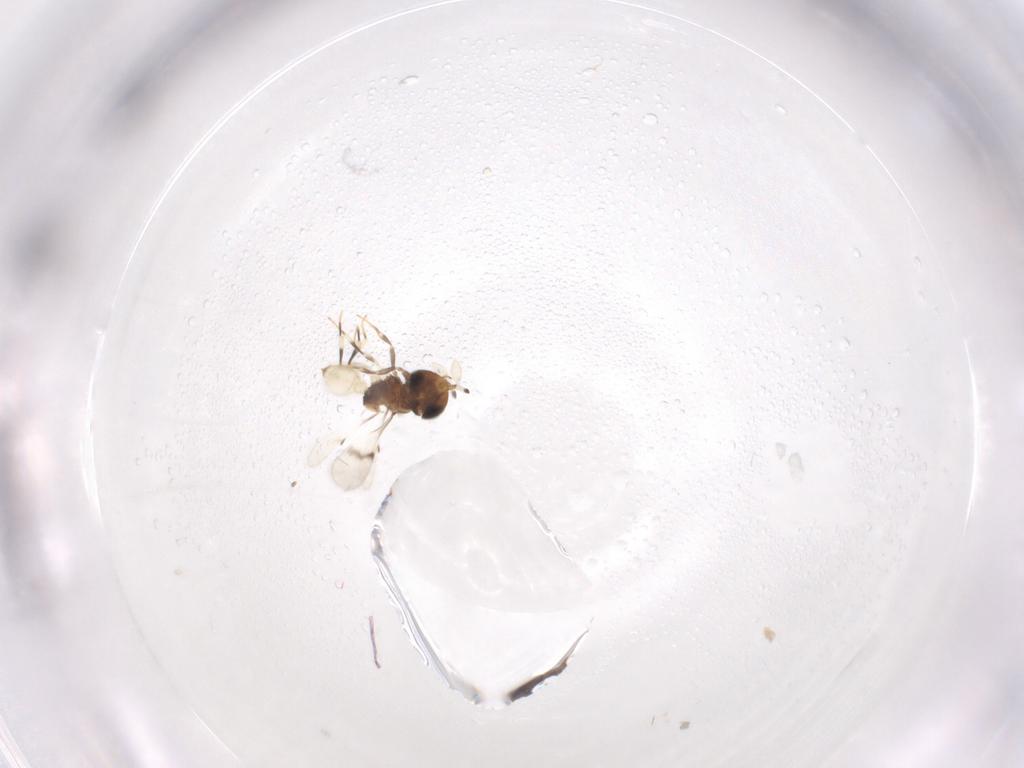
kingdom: Animalia
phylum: Arthropoda
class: Insecta
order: Hymenoptera
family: Scelionidae
